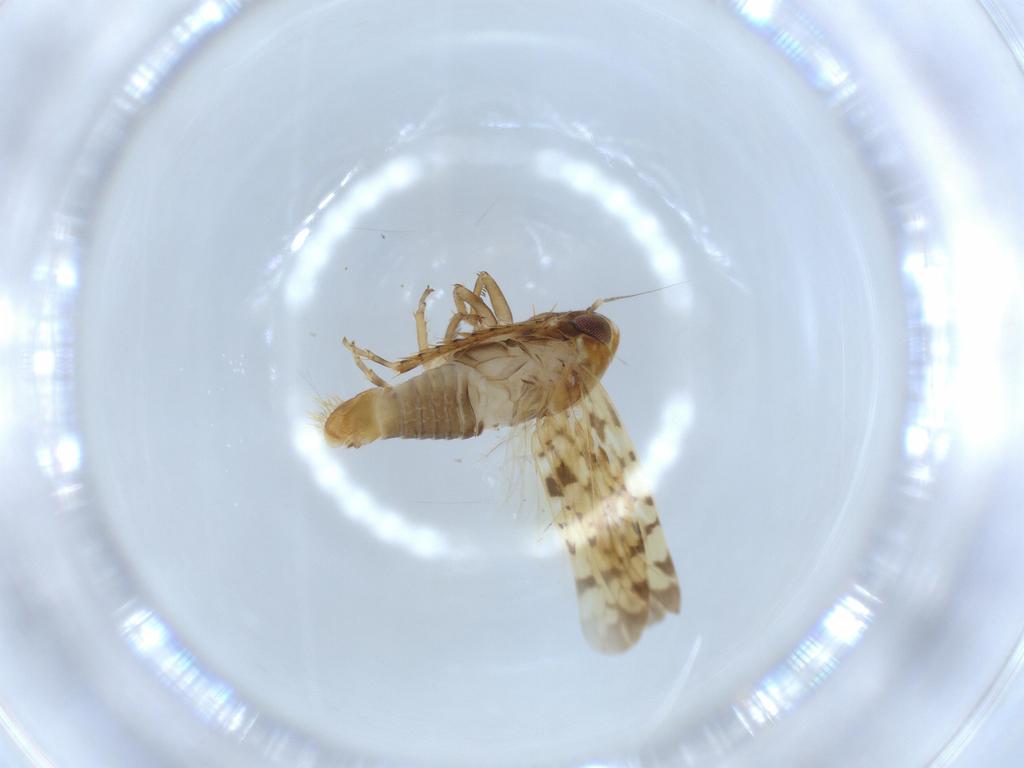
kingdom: Animalia
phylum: Arthropoda
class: Insecta
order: Hemiptera
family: Cicadellidae
